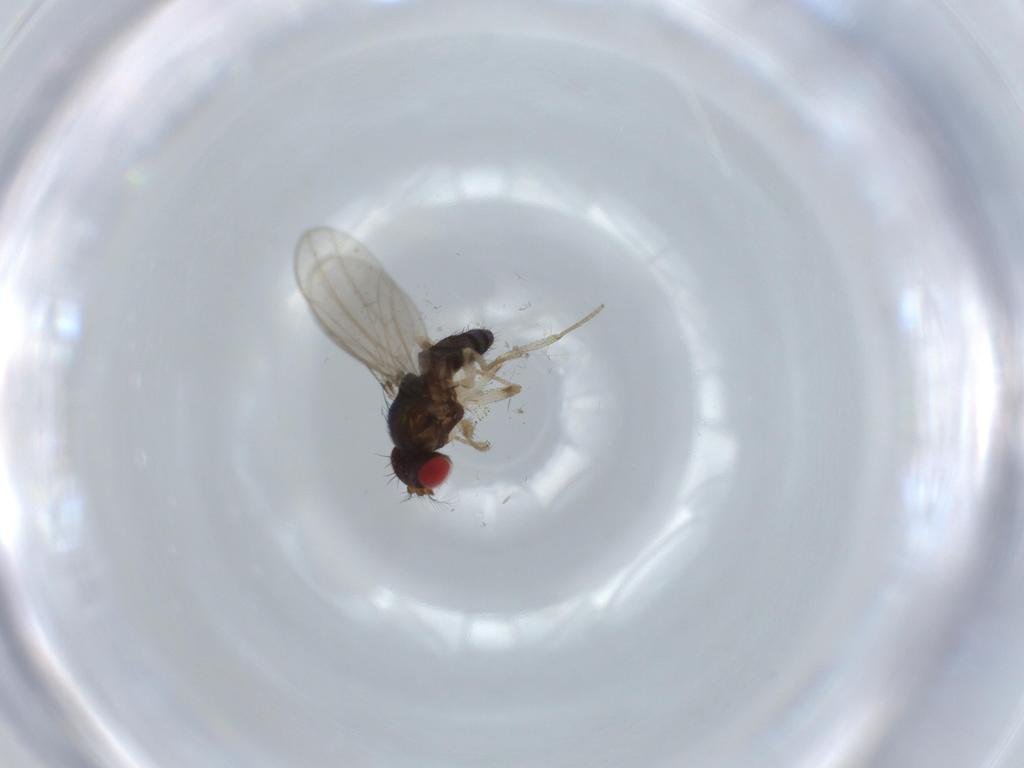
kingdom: Animalia
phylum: Arthropoda
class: Insecta
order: Diptera
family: Drosophilidae
